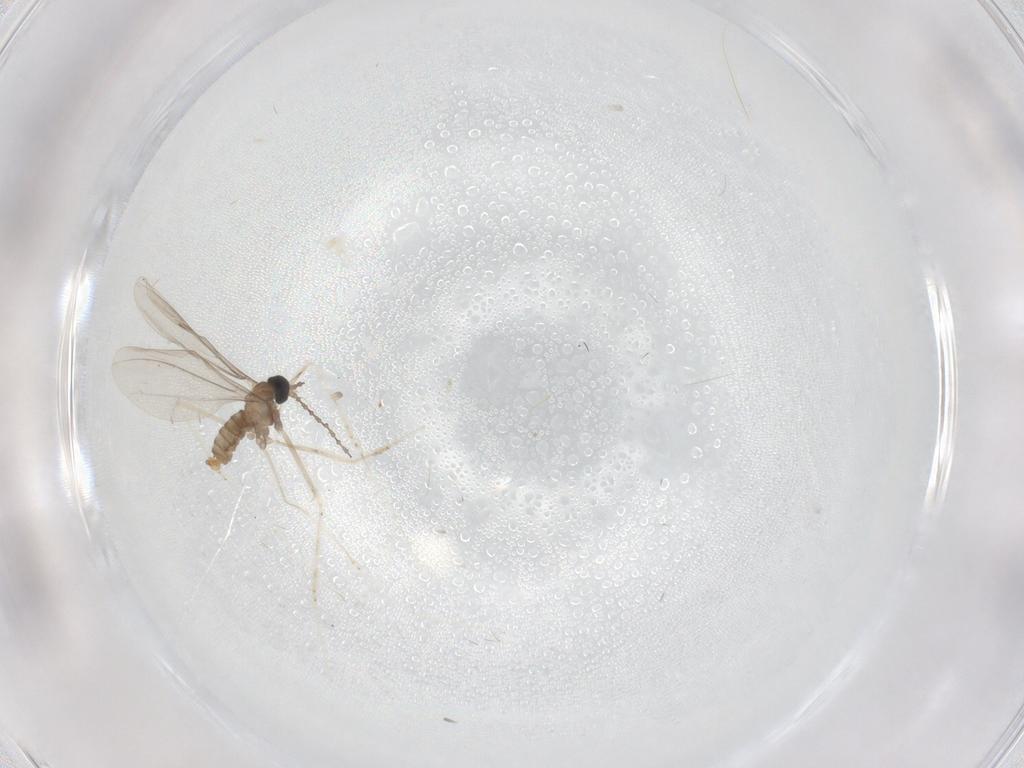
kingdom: Animalia
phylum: Arthropoda
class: Insecta
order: Diptera
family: Cecidomyiidae
